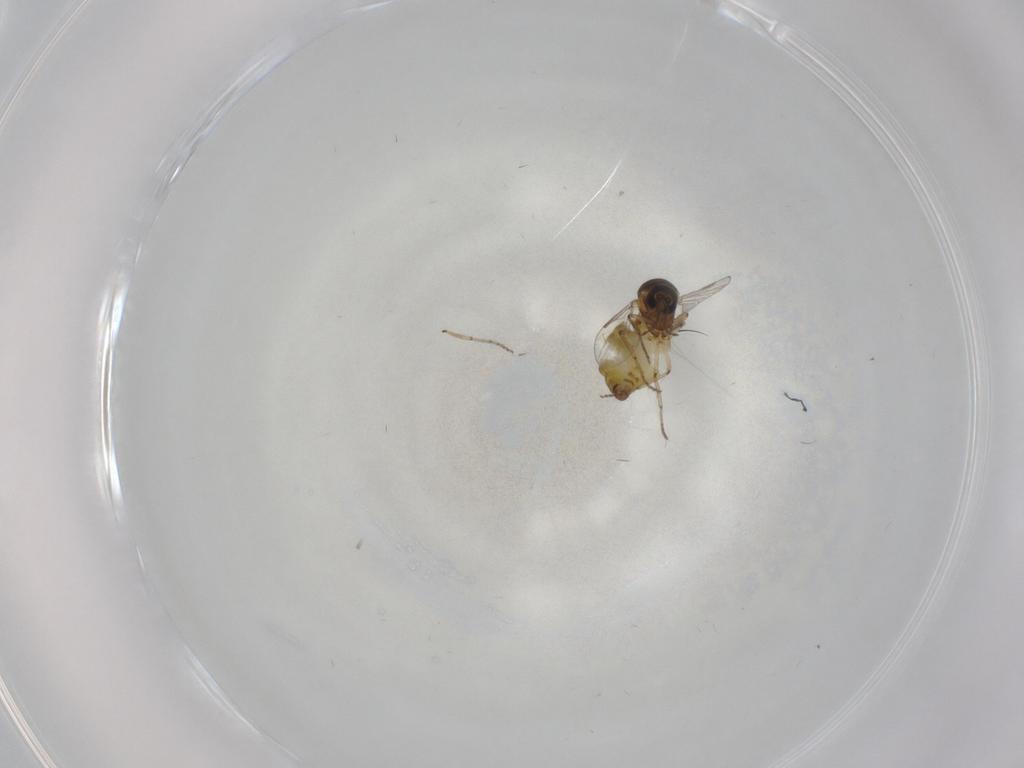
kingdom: Animalia
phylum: Arthropoda
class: Insecta
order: Diptera
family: Ceratopogonidae
